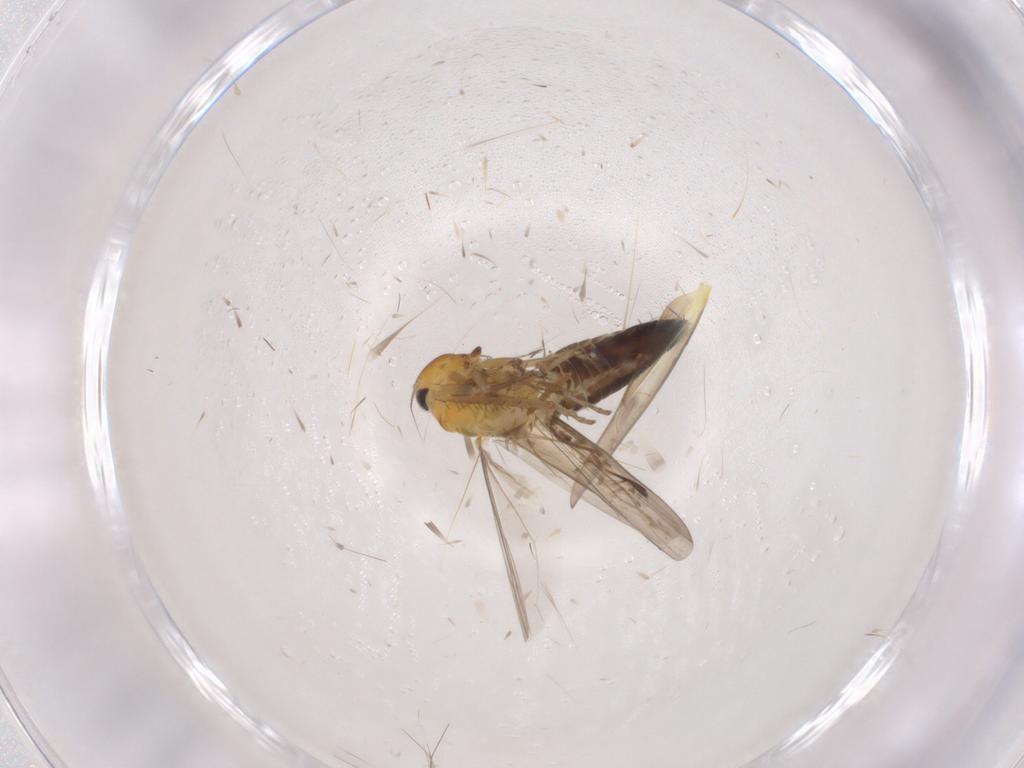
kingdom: Animalia
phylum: Arthropoda
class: Insecta
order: Hemiptera
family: Cicadellidae
